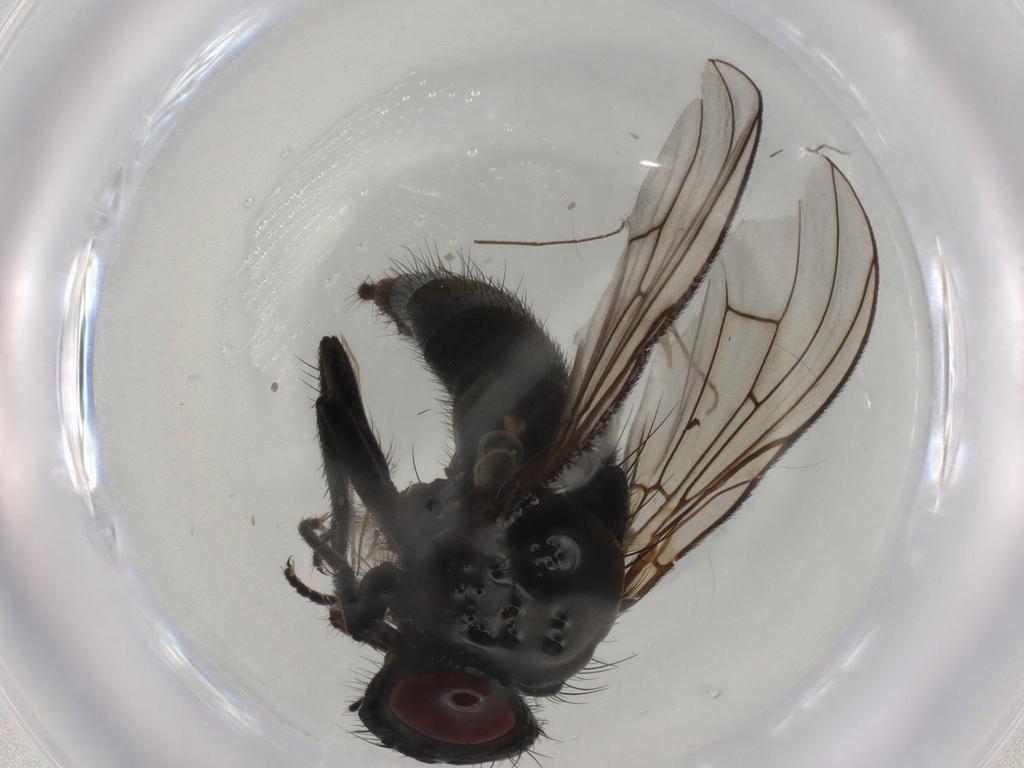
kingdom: Animalia
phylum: Arthropoda
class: Insecta
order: Diptera
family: Muscidae
